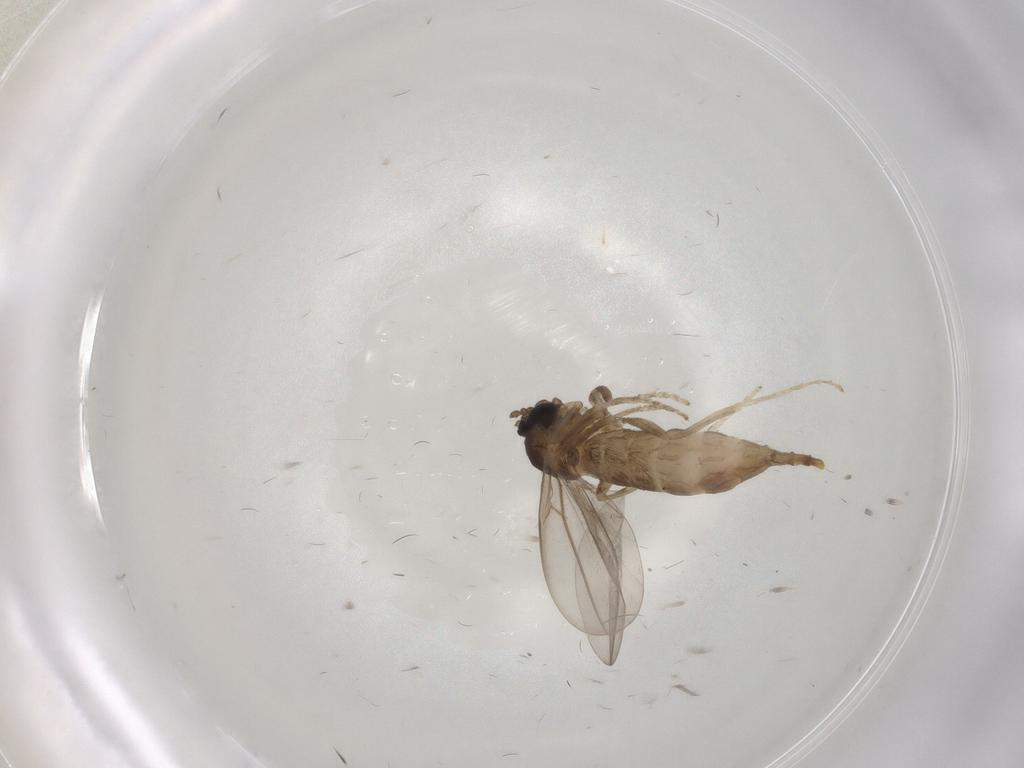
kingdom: Animalia
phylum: Arthropoda
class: Insecta
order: Diptera
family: Cecidomyiidae
